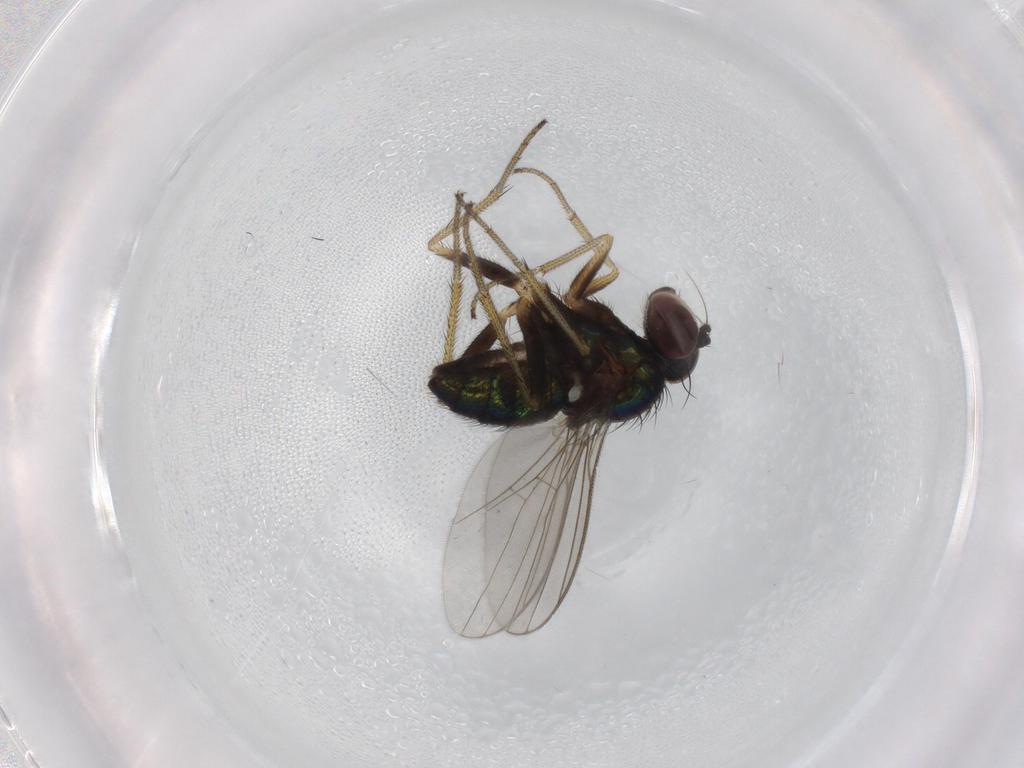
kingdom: Animalia
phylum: Arthropoda
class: Insecta
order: Diptera
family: Dolichopodidae
